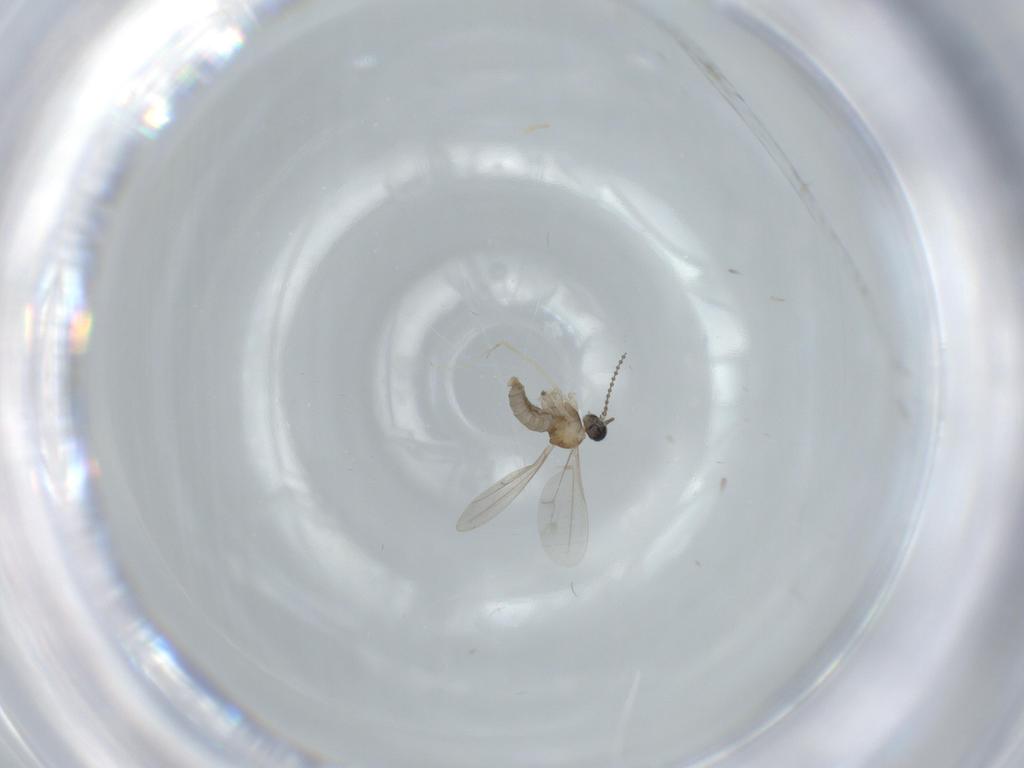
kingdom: Animalia
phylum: Arthropoda
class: Insecta
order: Diptera
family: Cecidomyiidae
